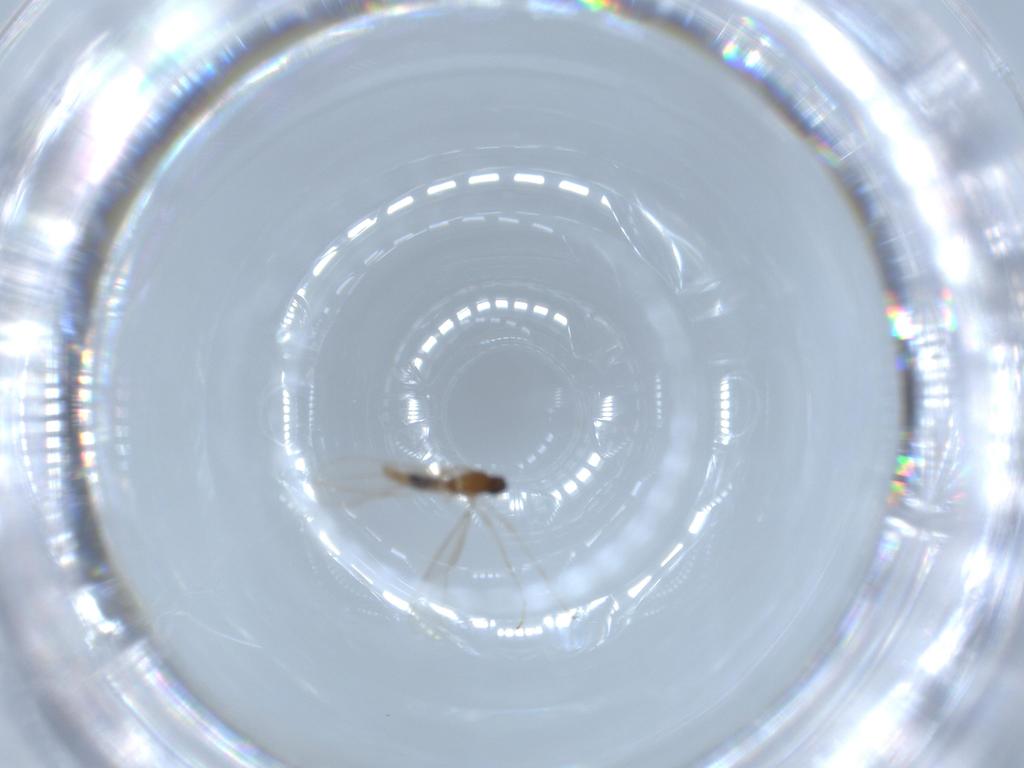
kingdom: Animalia
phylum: Arthropoda
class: Insecta
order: Diptera
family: Cecidomyiidae
